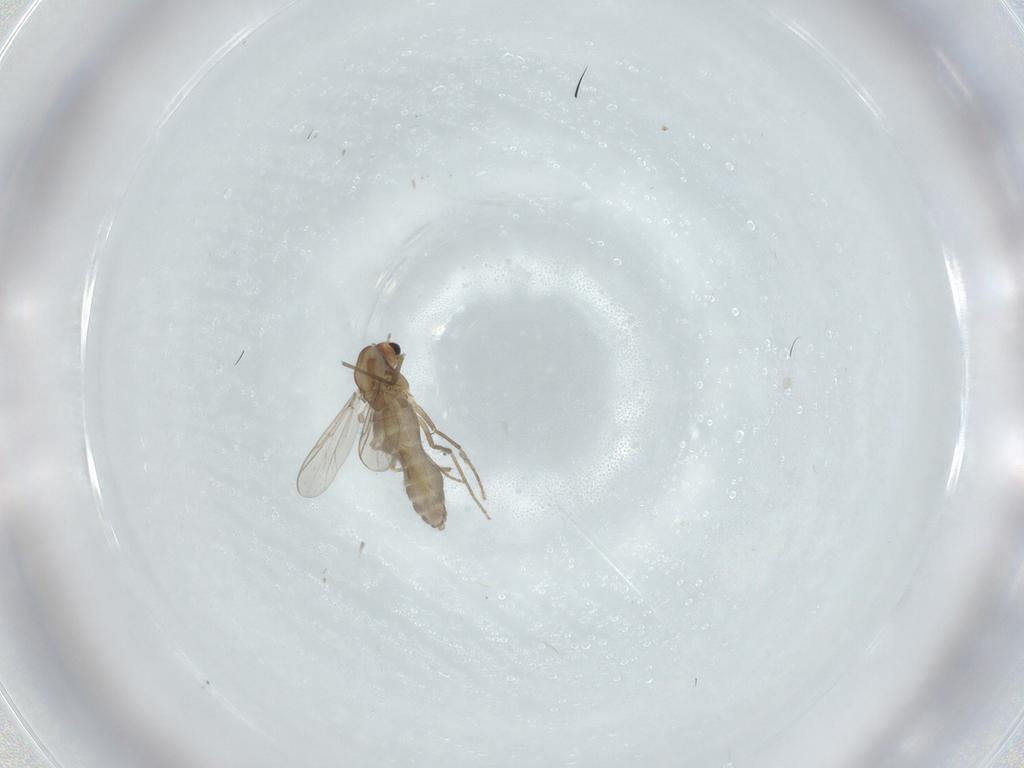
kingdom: Animalia
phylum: Arthropoda
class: Insecta
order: Diptera
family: Chironomidae
